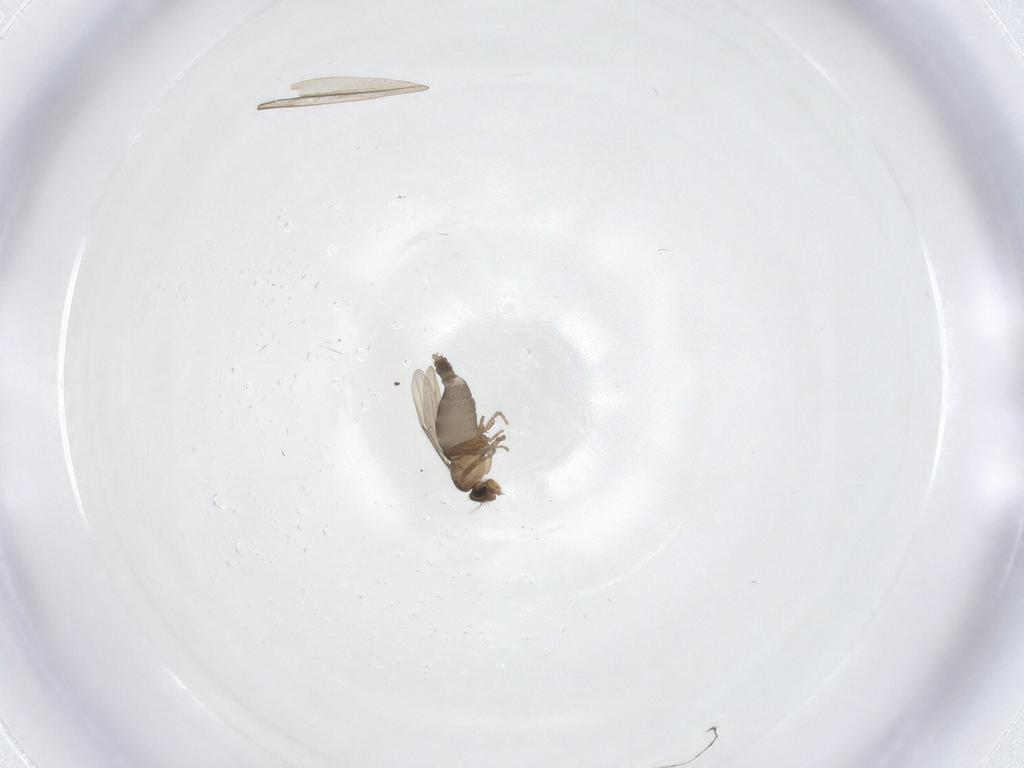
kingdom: Animalia
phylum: Arthropoda
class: Insecta
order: Diptera
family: Phoridae
